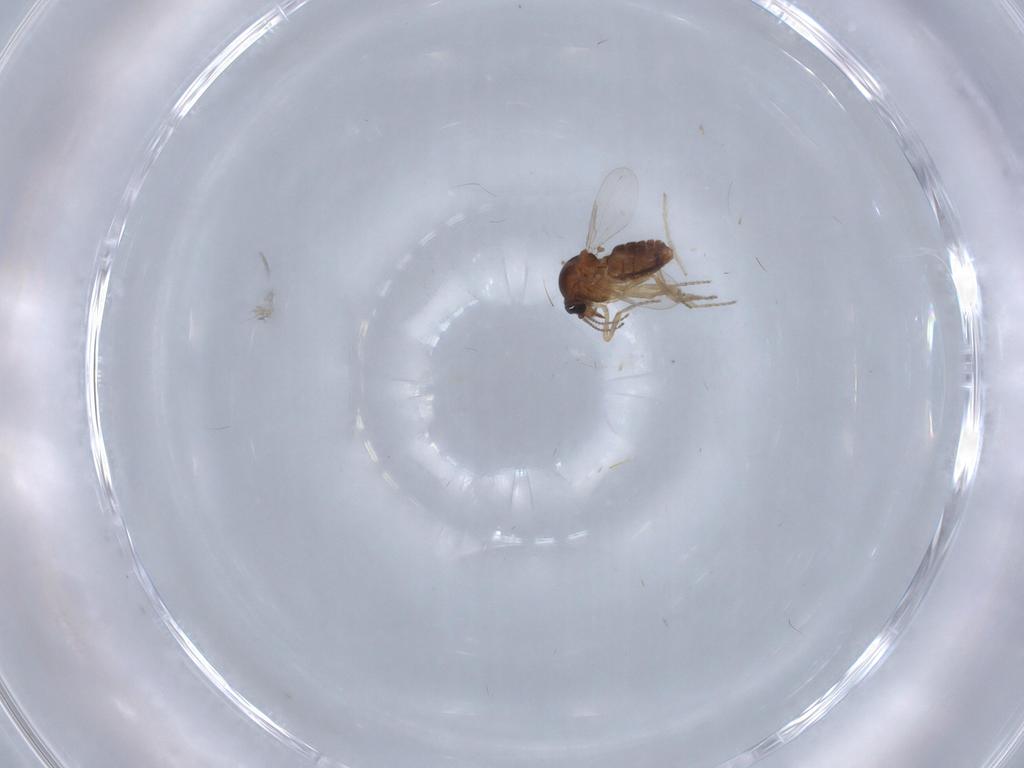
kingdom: Animalia
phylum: Arthropoda
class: Insecta
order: Diptera
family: Ceratopogonidae
